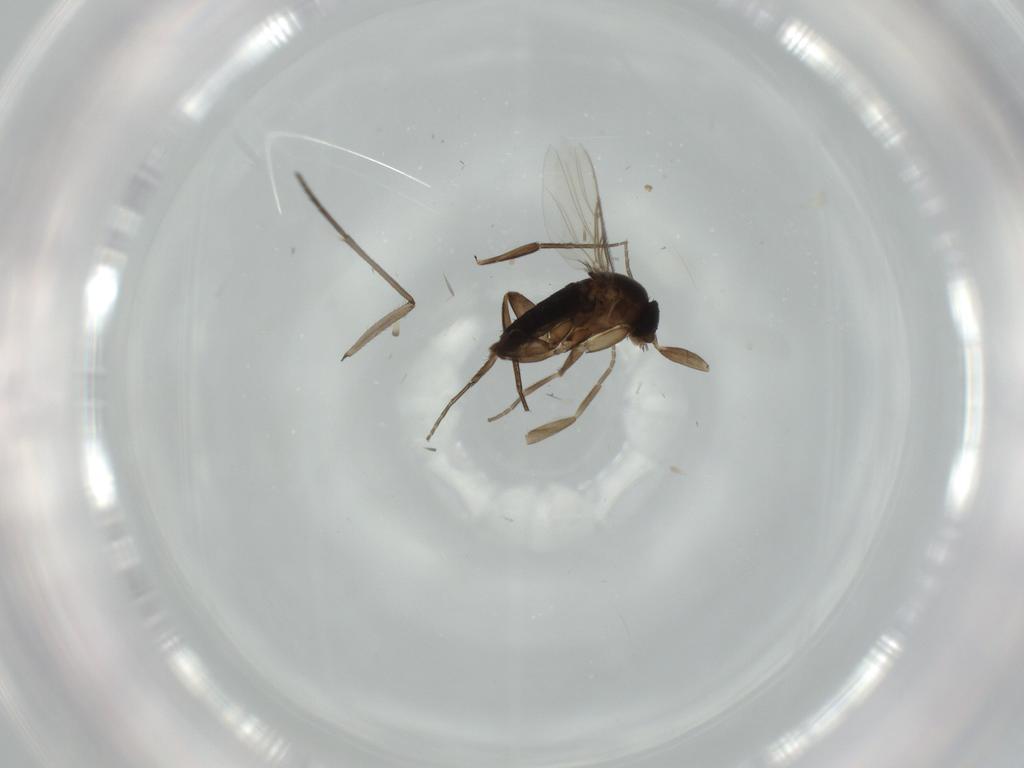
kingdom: Animalia
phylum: Arthropoda
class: Insecta
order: Diptera
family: Phoridae
